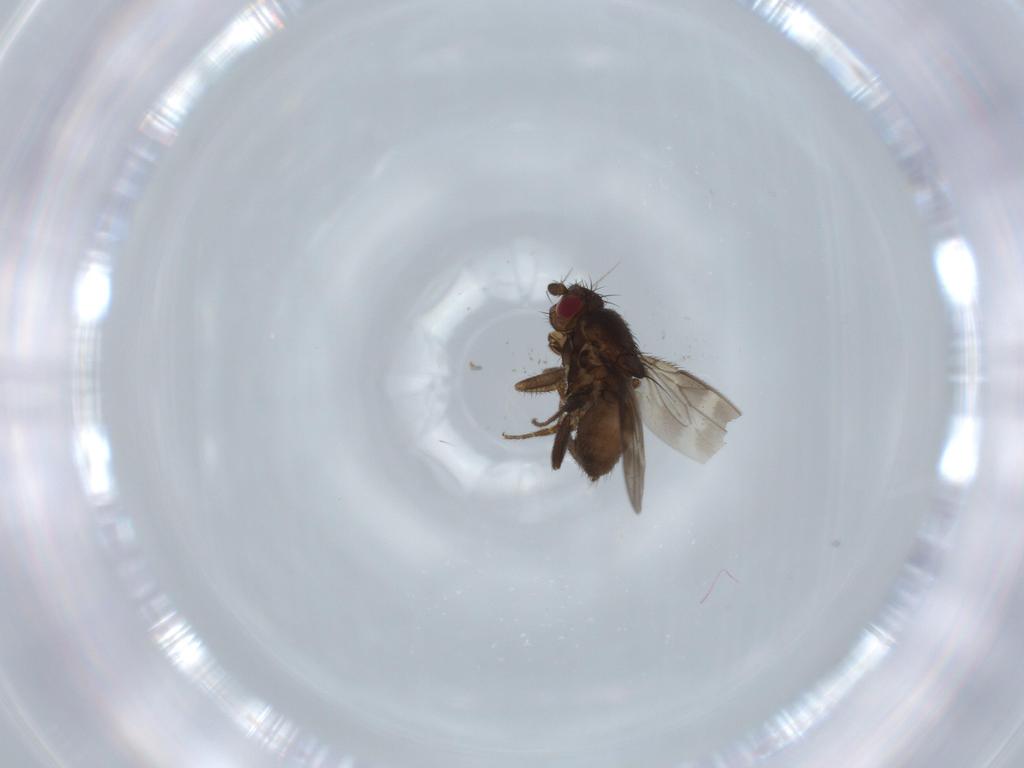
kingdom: Animalia
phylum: Arthropoda
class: Insecta
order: Diptera
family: Sphaeroceridae
